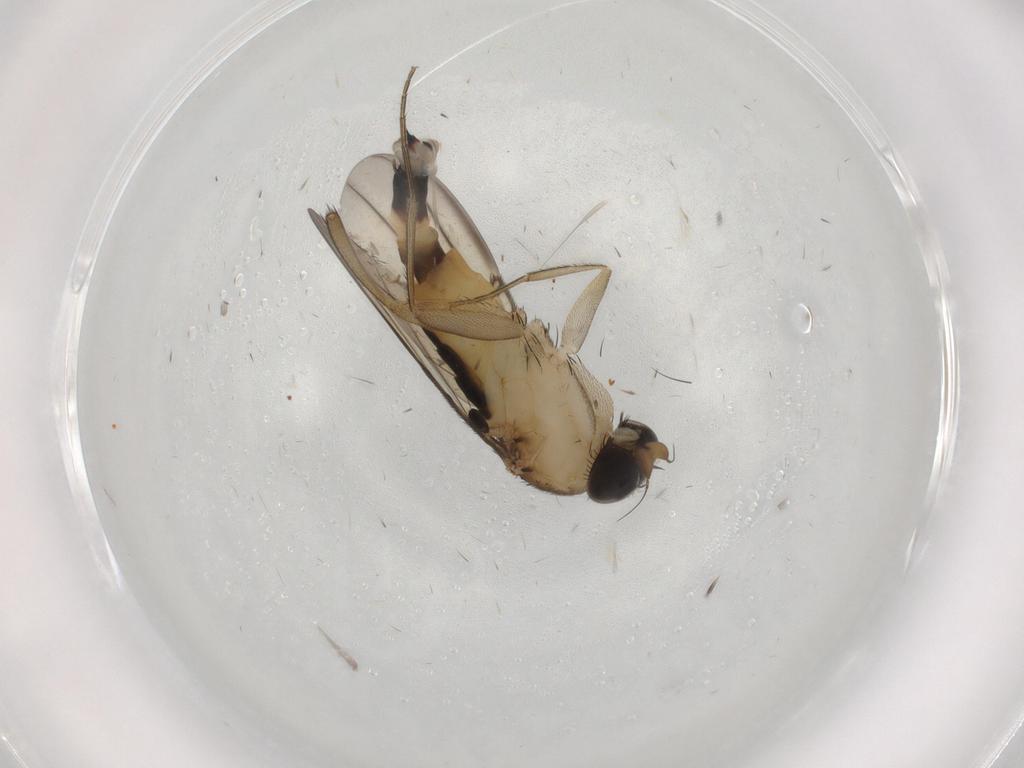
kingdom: Animalia
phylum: Arthropoda
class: Insecta
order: Diptera
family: Phoridae
